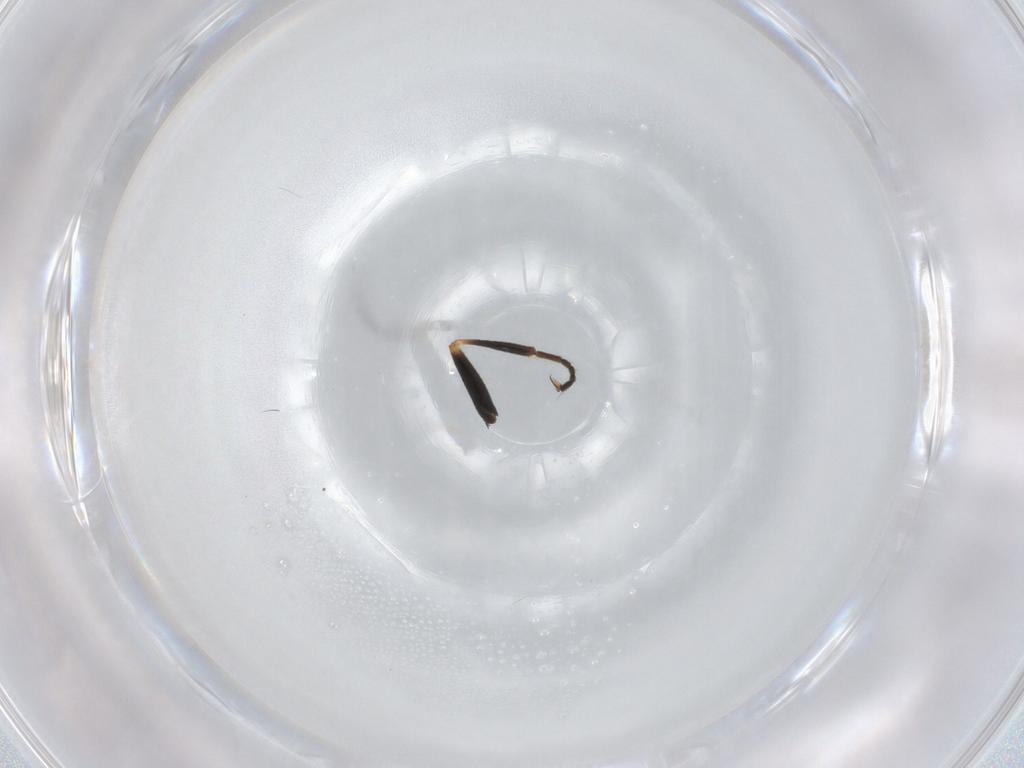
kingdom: Animalia
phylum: Arthropoda
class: Insecta
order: Diptera
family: Pipunculidae
